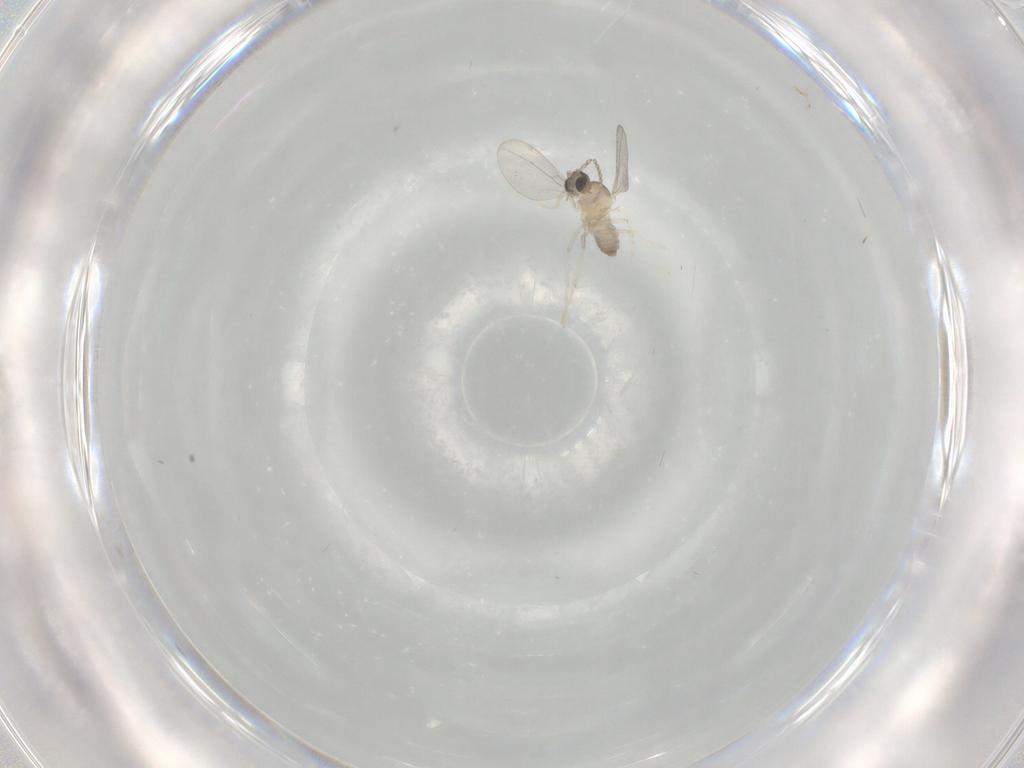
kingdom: Animalia
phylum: Arthropoda
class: Insecta
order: Diptera
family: Cecidomyiidae
